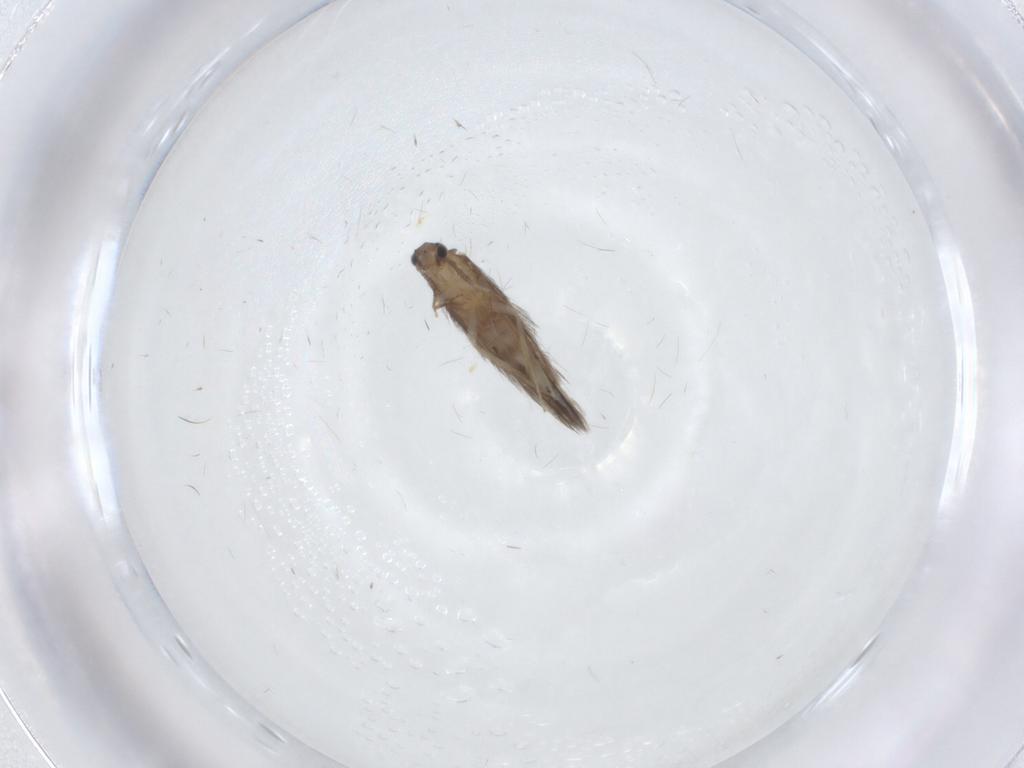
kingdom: Animalia
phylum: Arthropoda
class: Insecta
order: Trichoptera
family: Hydroptilidae
